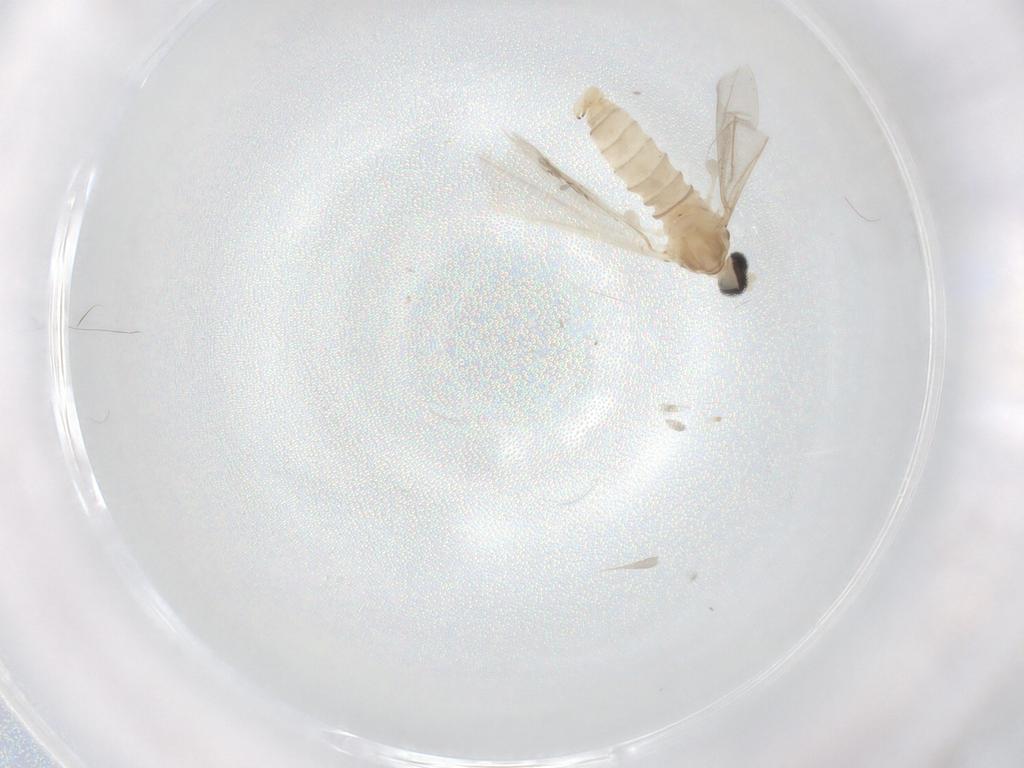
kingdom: Animalia
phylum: Arthropoda
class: Insecta
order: Diptera
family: Cecidomyiidae
